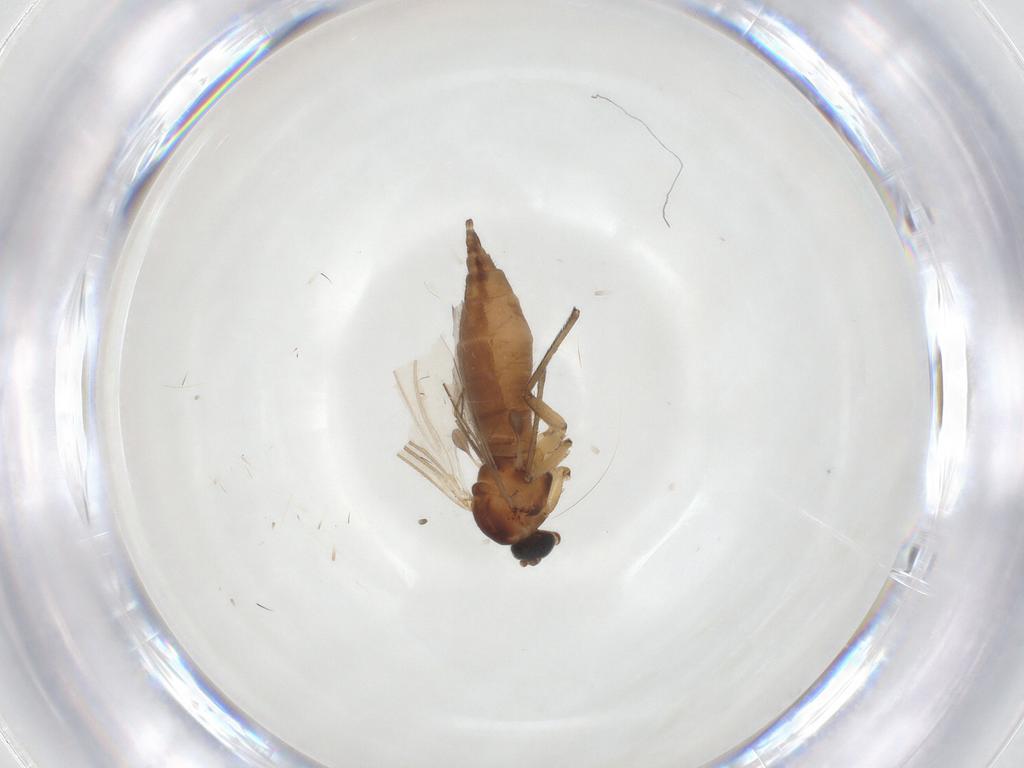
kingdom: Animalia
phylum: Arthropoda
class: Insecta
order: Diptera
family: Sciaridae
